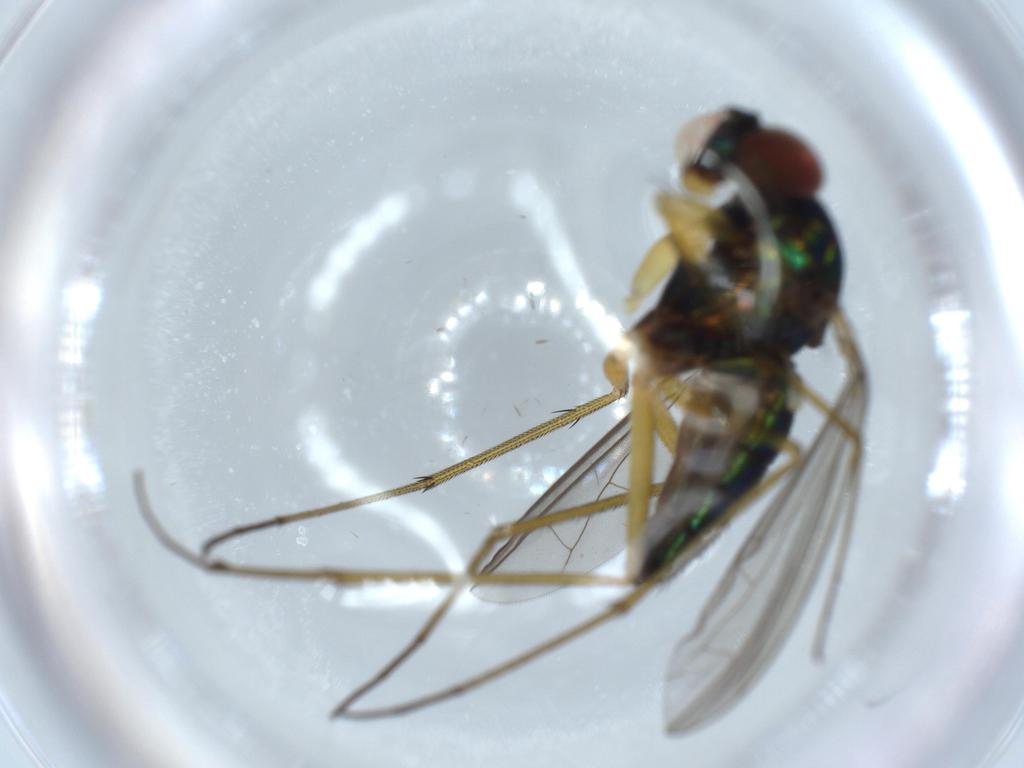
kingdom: Animalia
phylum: Arthropoda
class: Insecta
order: Diptera
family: Dolichopodidae
